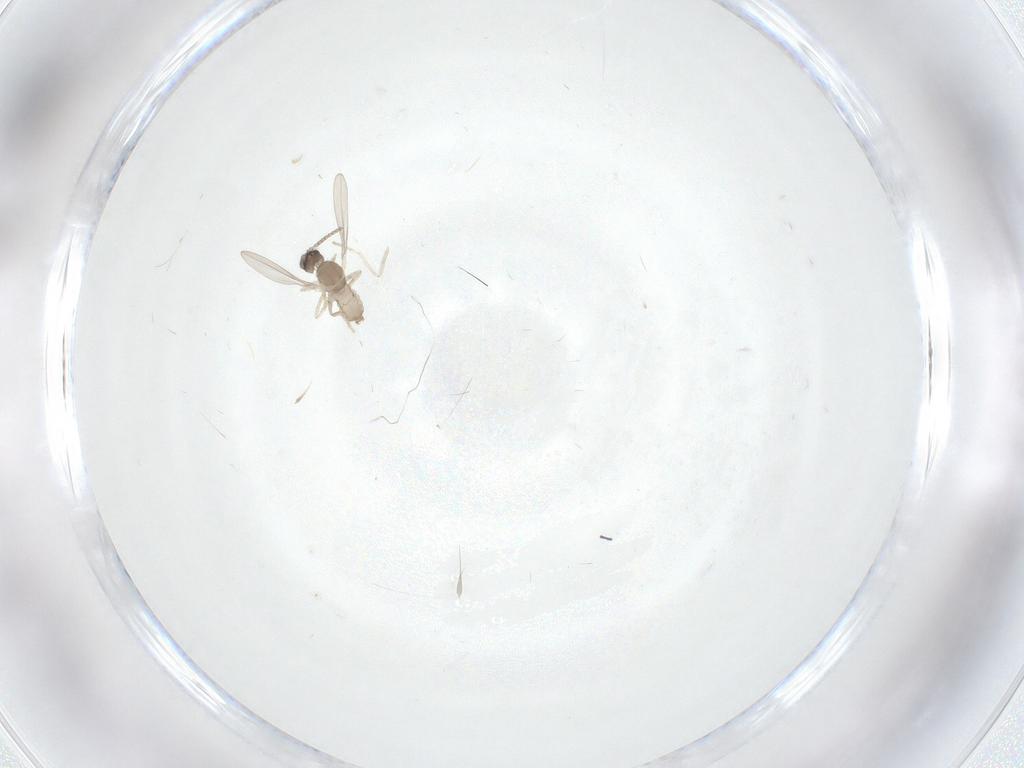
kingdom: Animalia
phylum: Arthropoda
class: Insecta
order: Diptera
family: Cecidomyiidae
